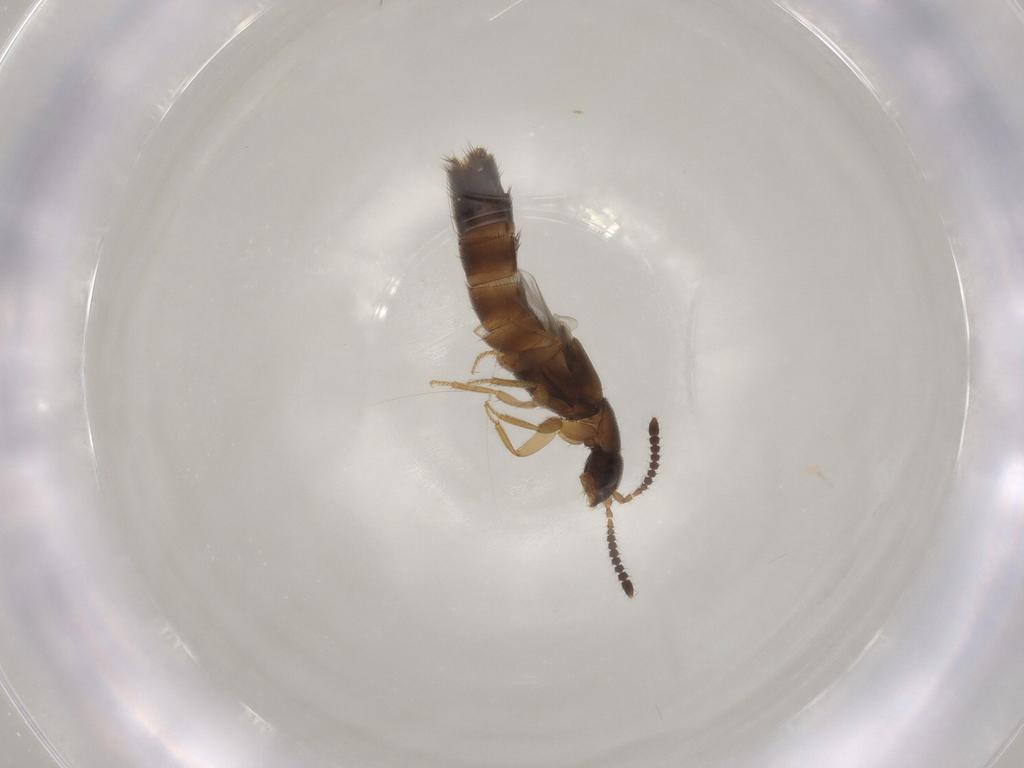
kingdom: Animalia
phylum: Arthropoda
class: Insecta
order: Coleoptera
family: Staphylinidae
